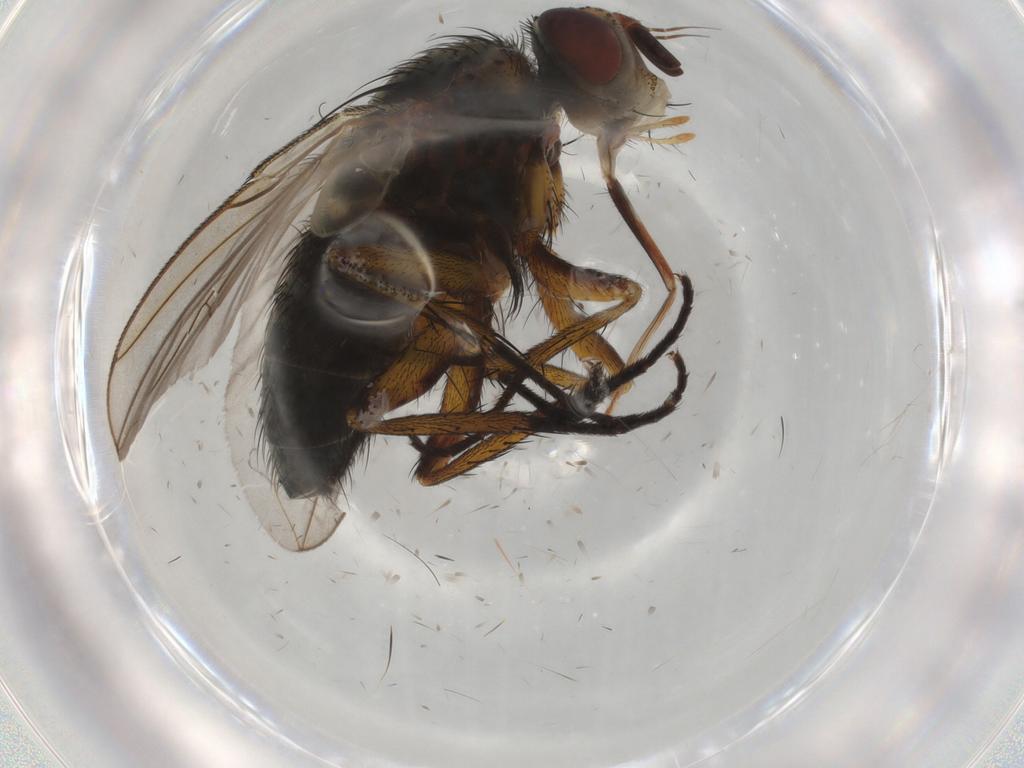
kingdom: Animalia
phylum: Arthropoda
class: Insecta
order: Diptera
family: Tachinidae
